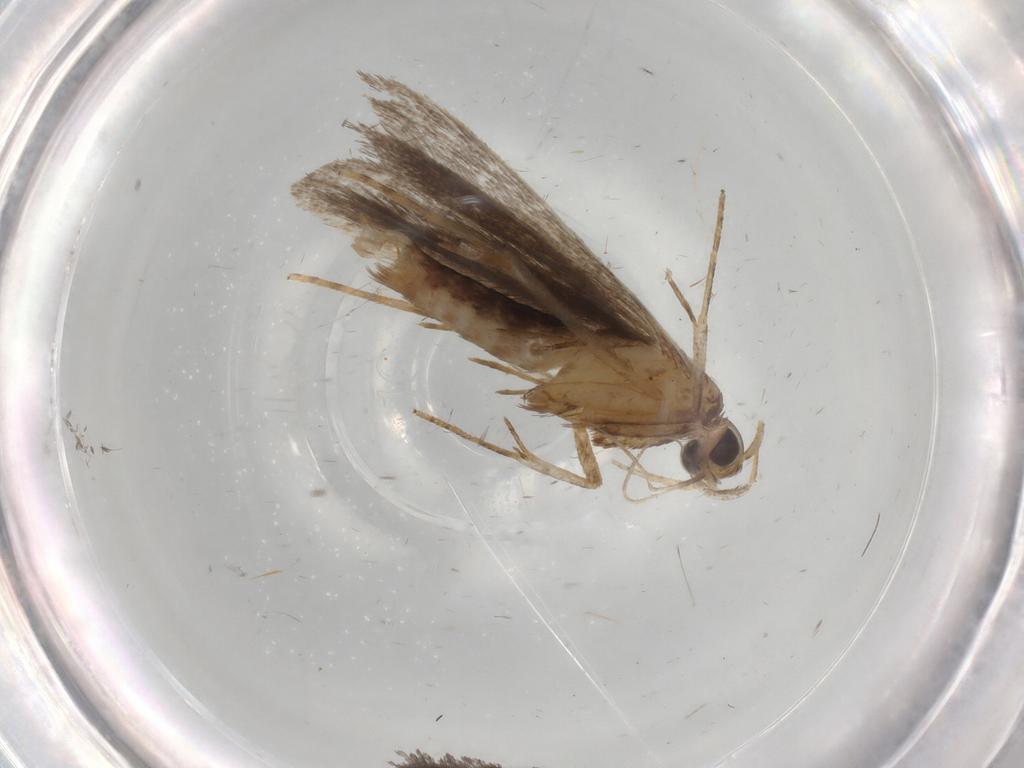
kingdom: Animalia
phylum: Arthropoda
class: Insecta
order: Lepidoptera
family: Gelechiidae
